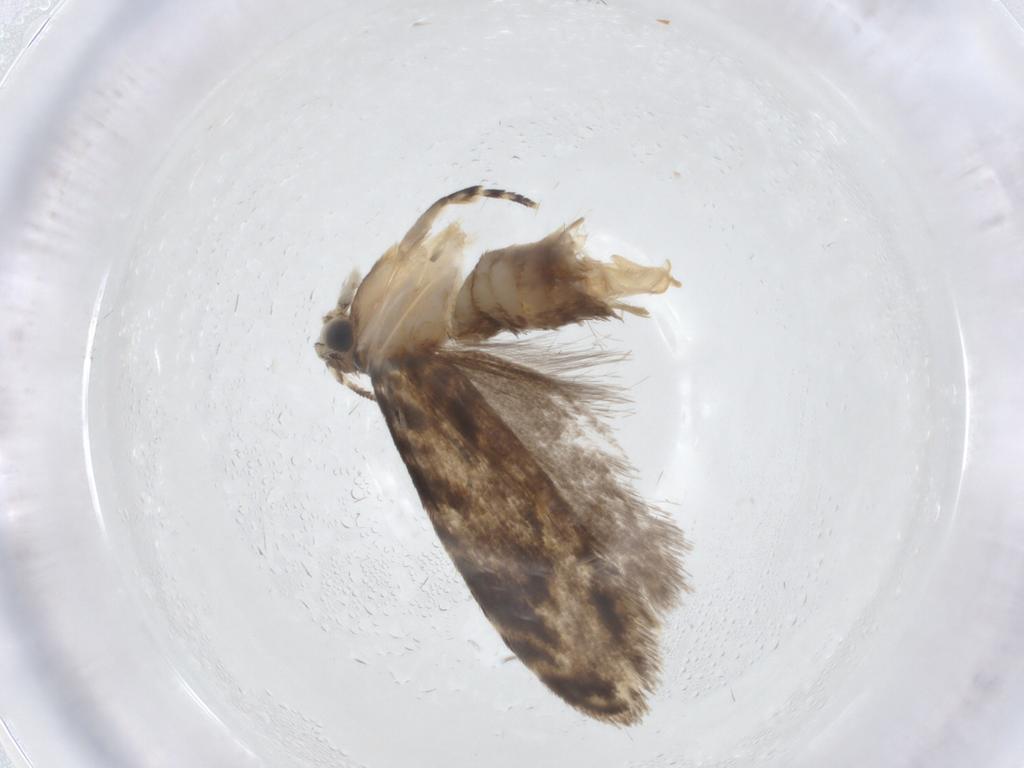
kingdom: Animalia
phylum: Arthropoda
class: Insecta
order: Lepidoptera
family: Tineidae
